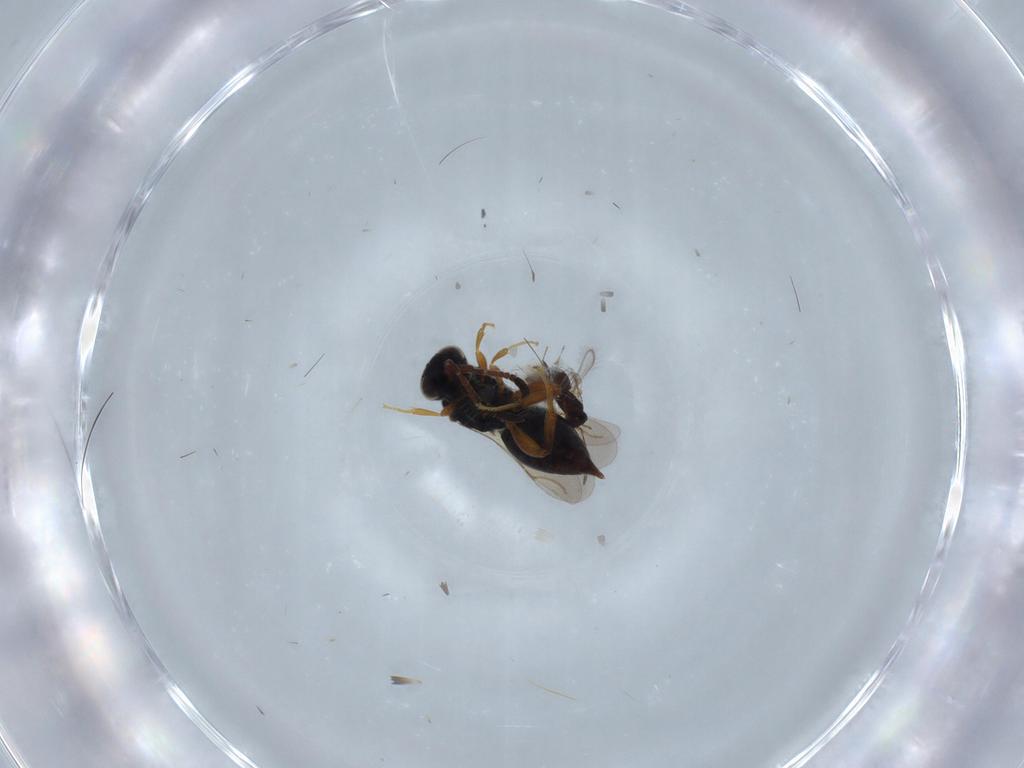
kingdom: Animalia
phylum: Arthropoda
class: Insecta
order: Hymenoptera
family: Mymaridae
